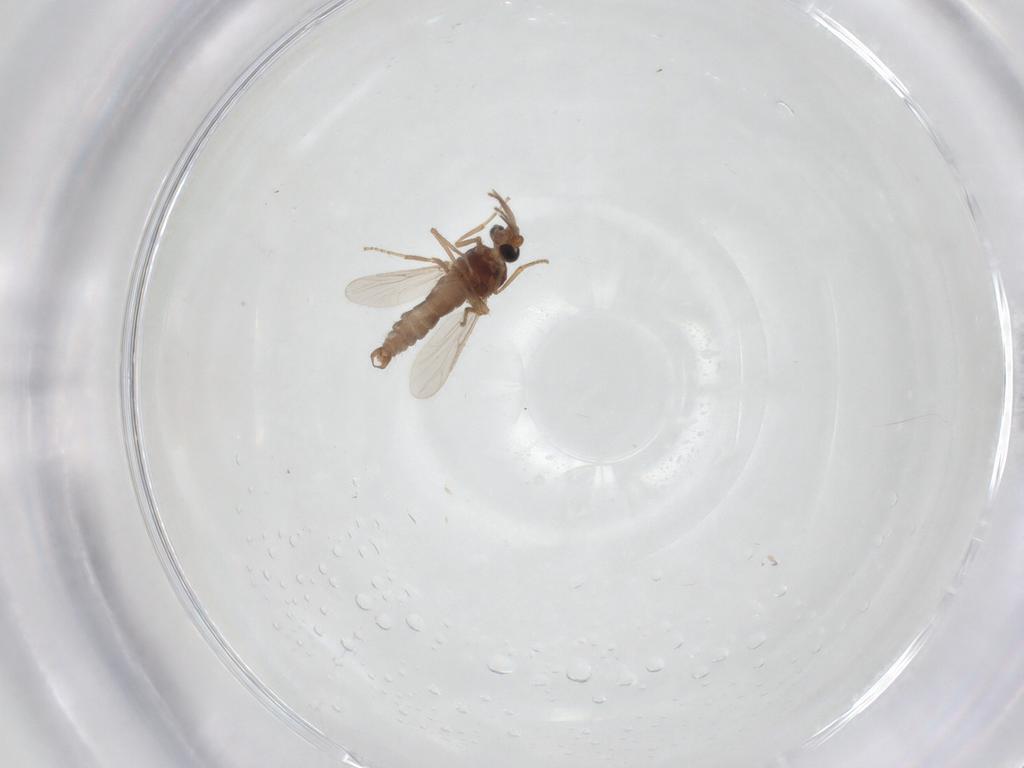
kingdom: Animalia
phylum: Arthropoda
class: Insecta
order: Diptera
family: Ceratopogonidae
